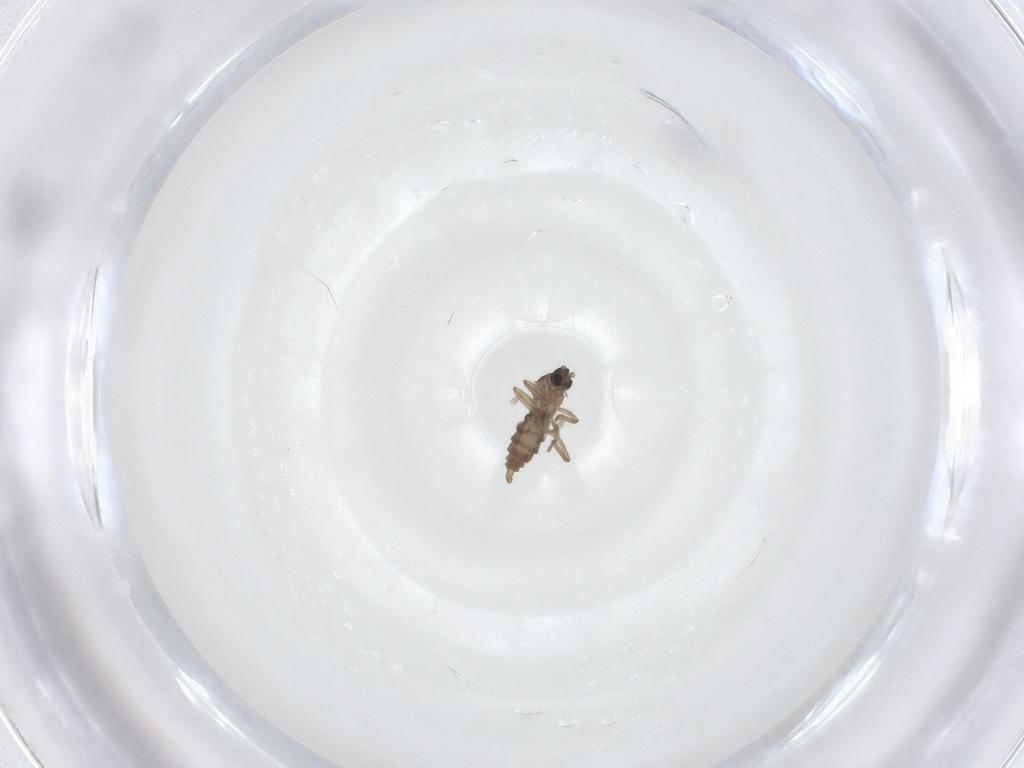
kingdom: Animalia
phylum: Arthropoda
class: Insecta
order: Diptera
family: Cecidomyiidae
